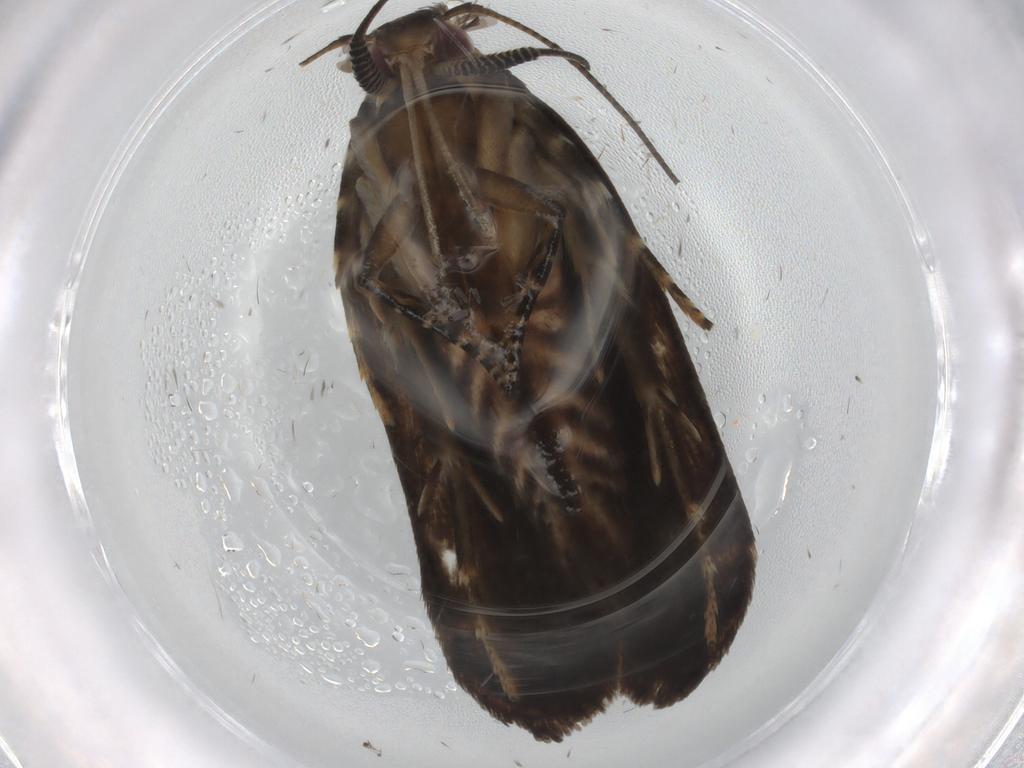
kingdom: Animalia
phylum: Arthropoda
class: Insecta
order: Lepidoptera
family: Gelechiidae
